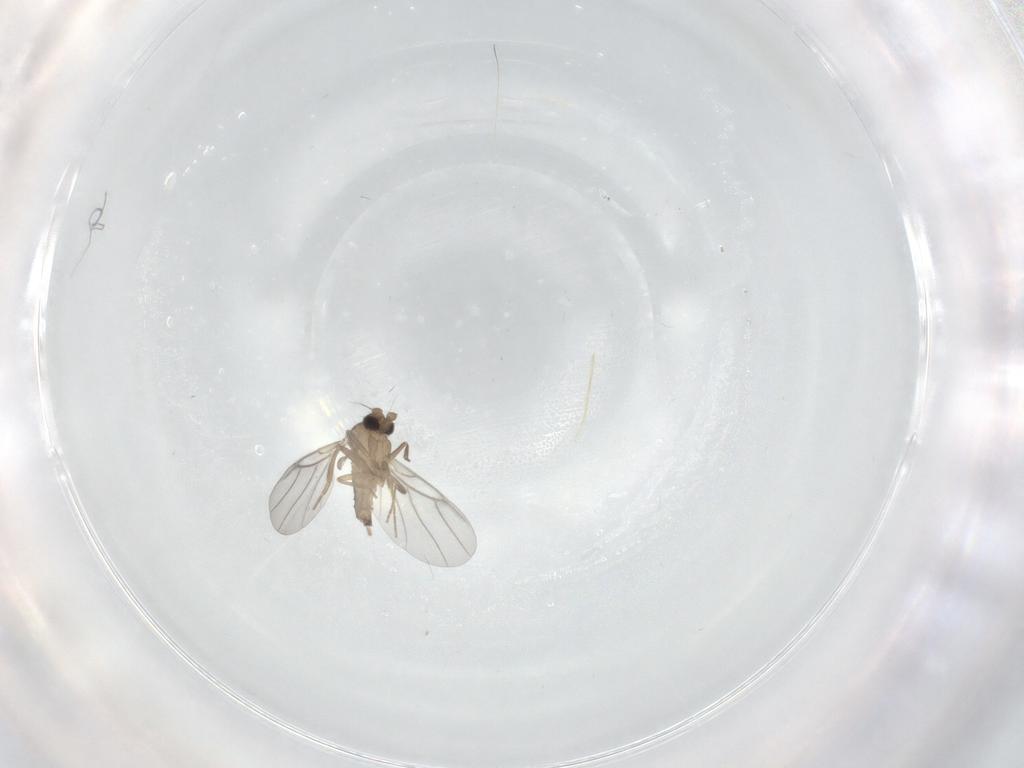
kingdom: Animalia
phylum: Arthropoda
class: Insecta
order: Diptera
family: Psychodidae
